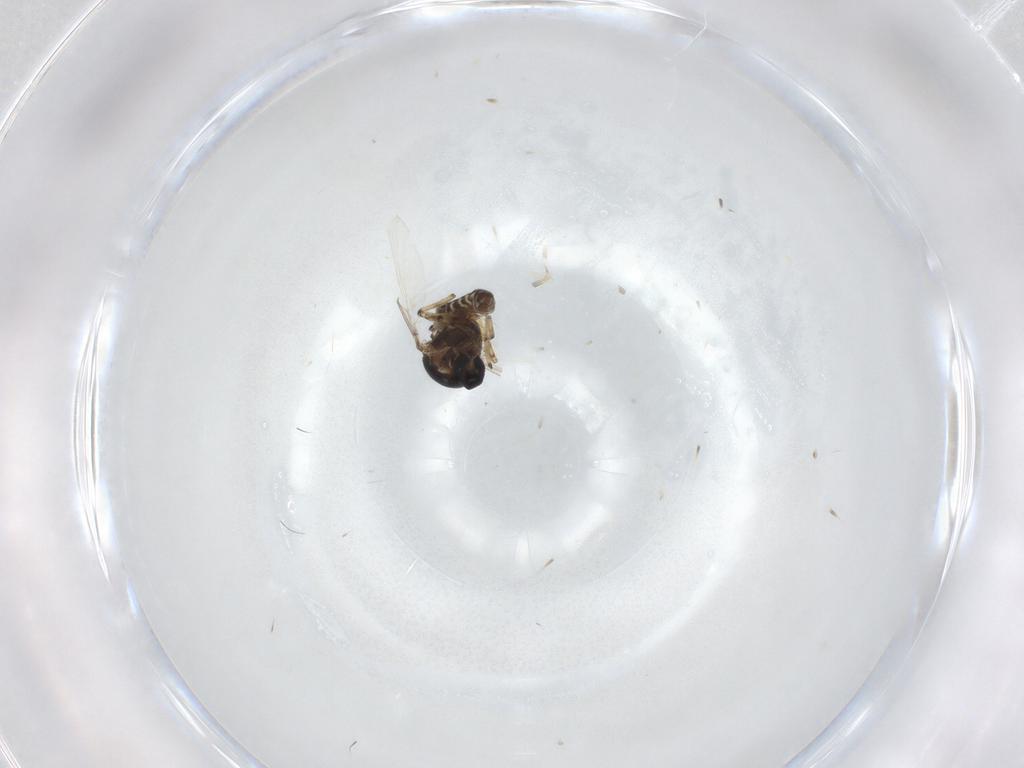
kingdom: Animalia
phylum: Arthropoda
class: Insecta
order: Diptera
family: Ceratopogonidae
